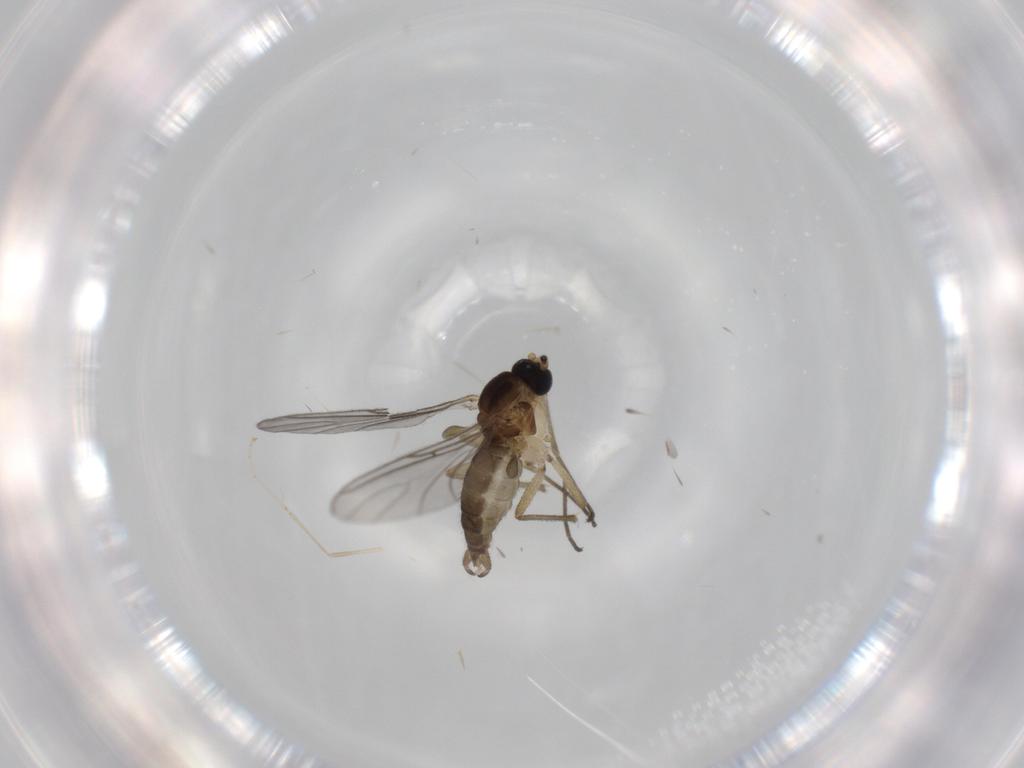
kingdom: Animalia
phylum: Arthropoda
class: Insecta
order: Diptera
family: Sciaridae
